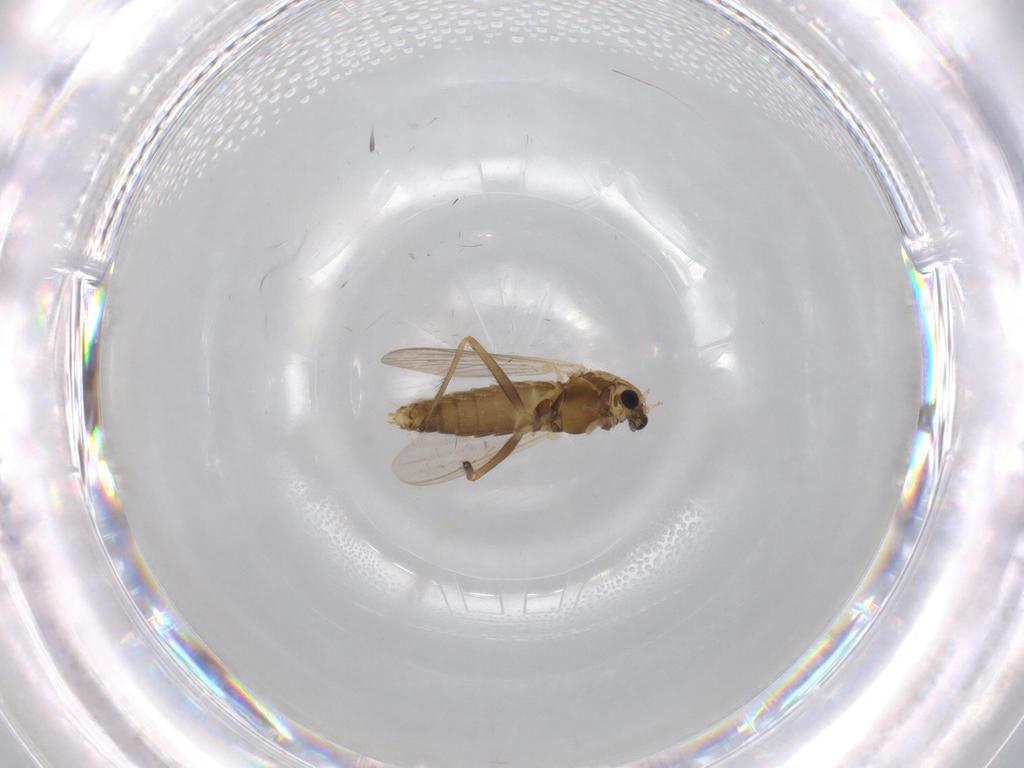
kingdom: Animalia
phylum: Arthropoda
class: Insecta
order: Diptera
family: Chironomidae
